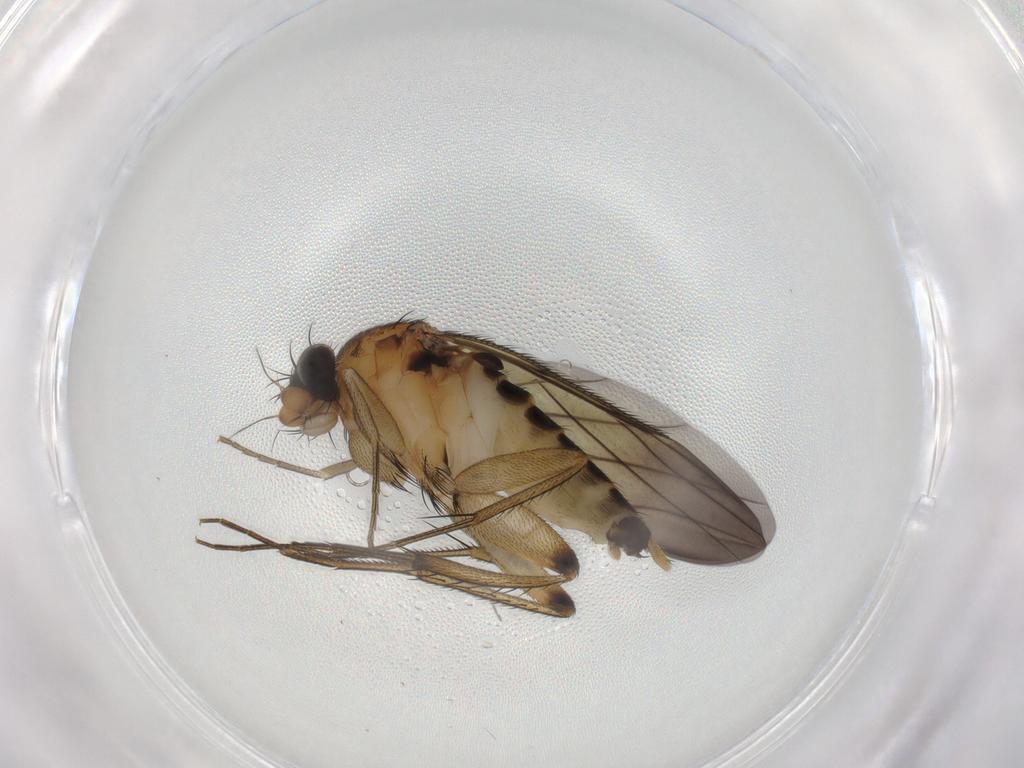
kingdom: Animalia
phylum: Arthropoda
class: Insecta
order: Diptera
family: Phoridae
